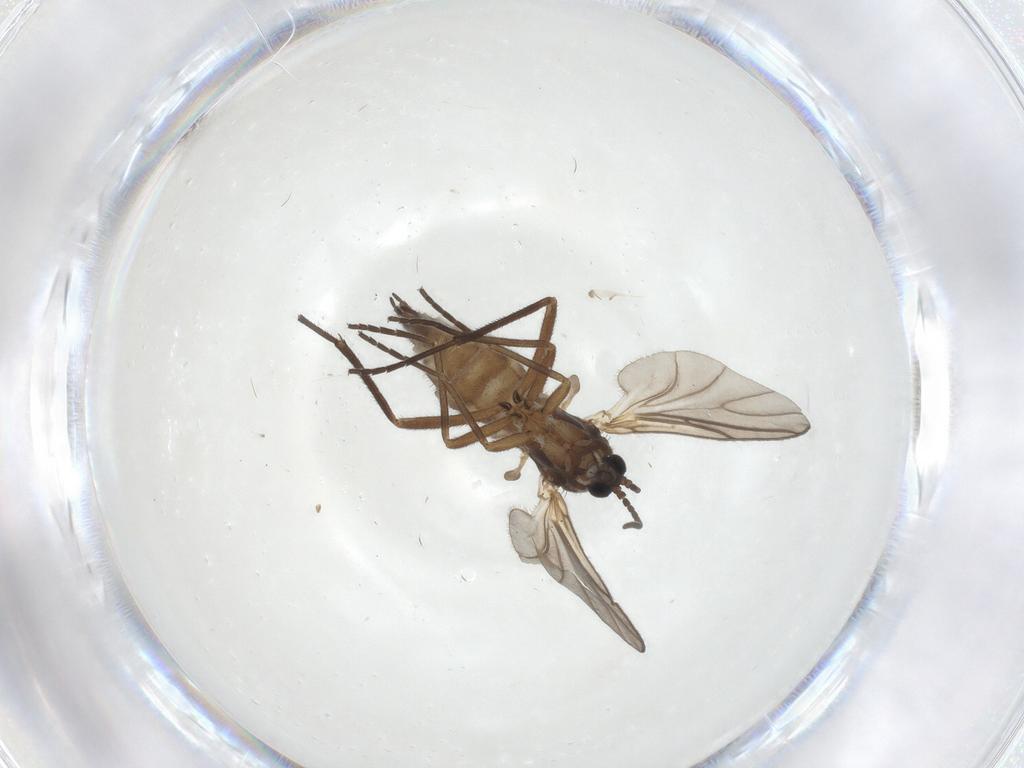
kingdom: Animalia
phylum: Arthropoda
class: Insecta
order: Diptera
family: Sciaridae
